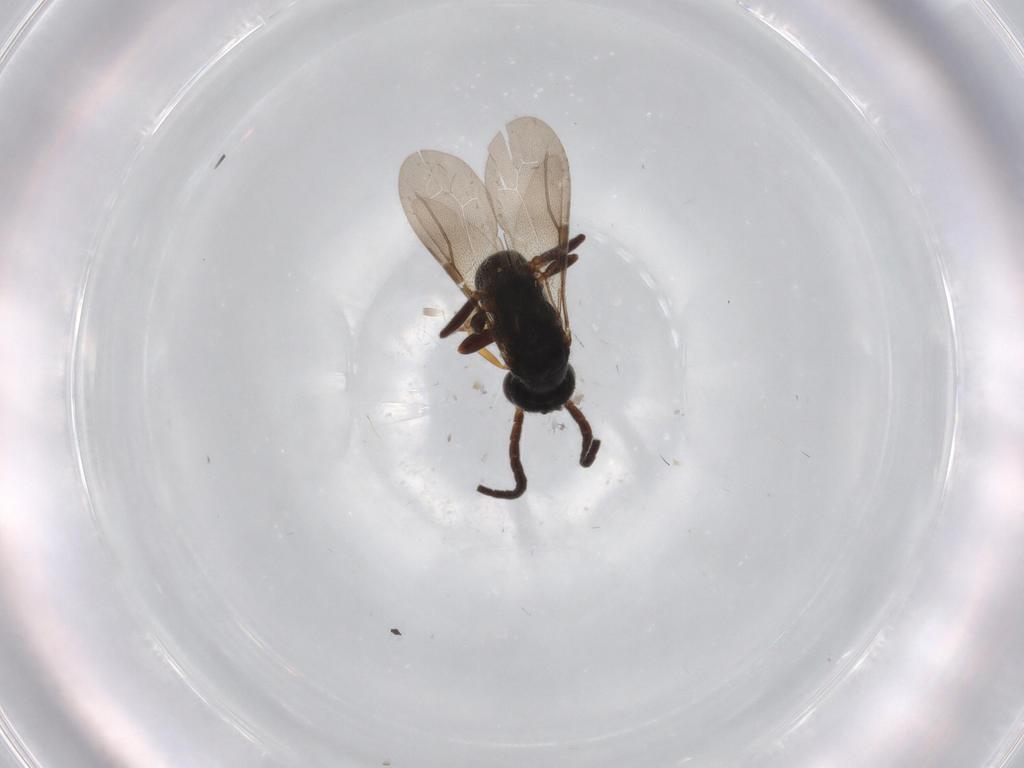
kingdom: Animalia
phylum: Arthropoda
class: Insecta
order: Hymenoptera
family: Bethylidae
